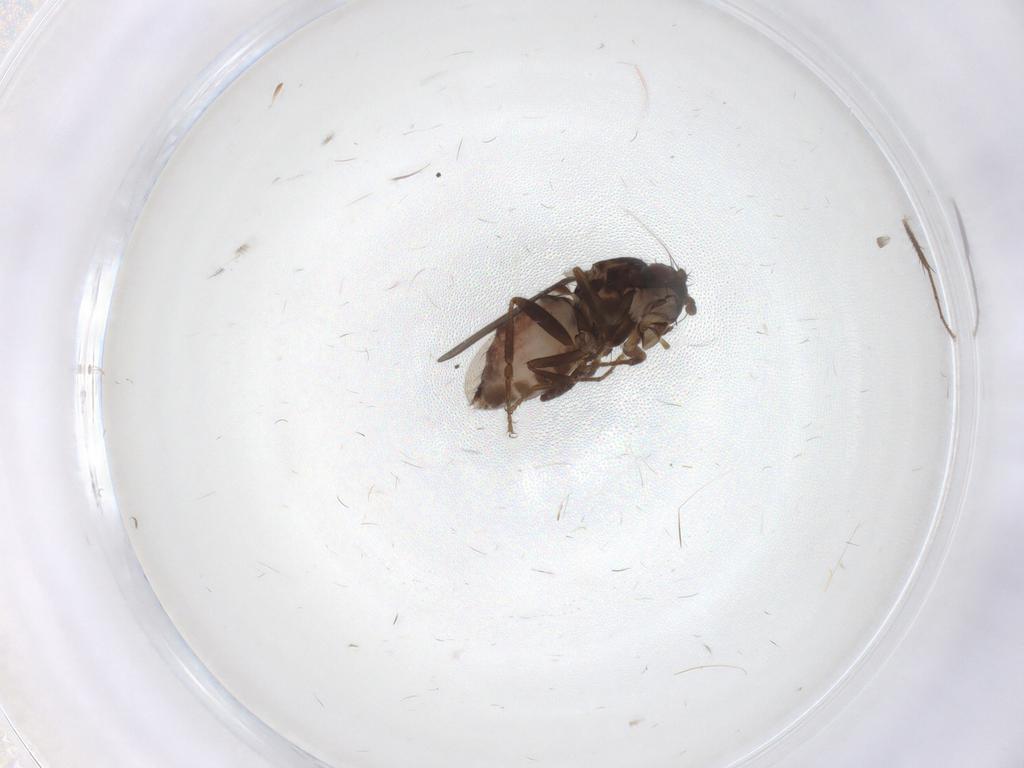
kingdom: Animalia
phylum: Arthropoda
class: Insecta
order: Diptera
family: Sphaeroceridae
